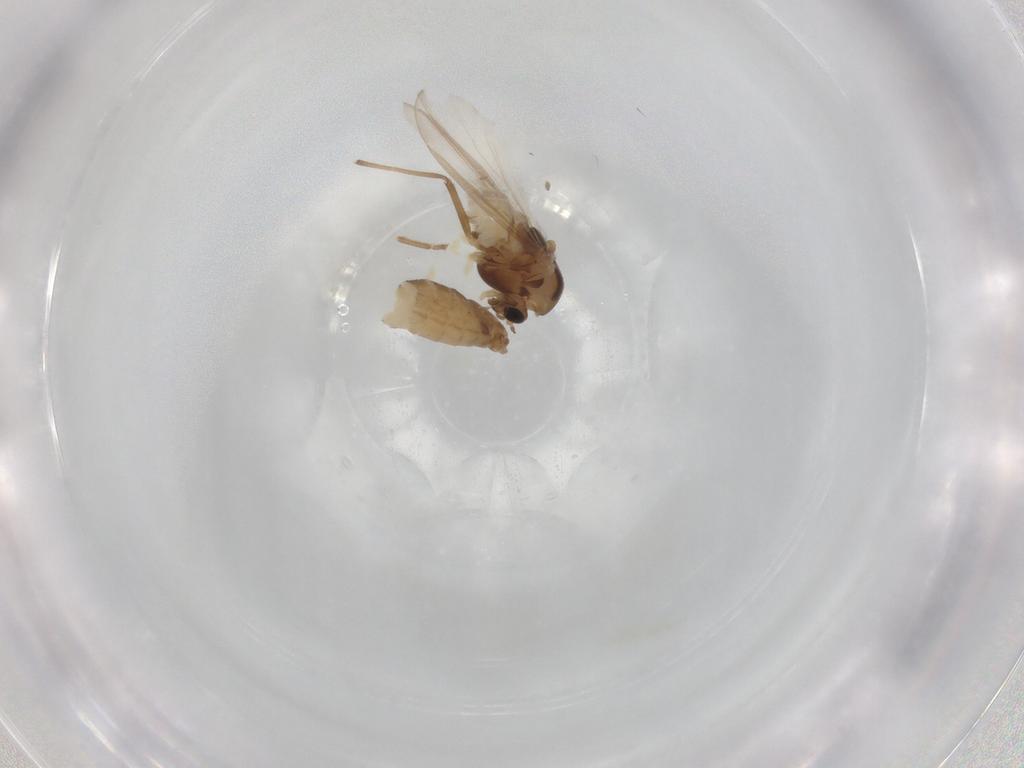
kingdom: Animalia
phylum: Arthropoda
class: Insecta
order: Diptera
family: Chironomidae
